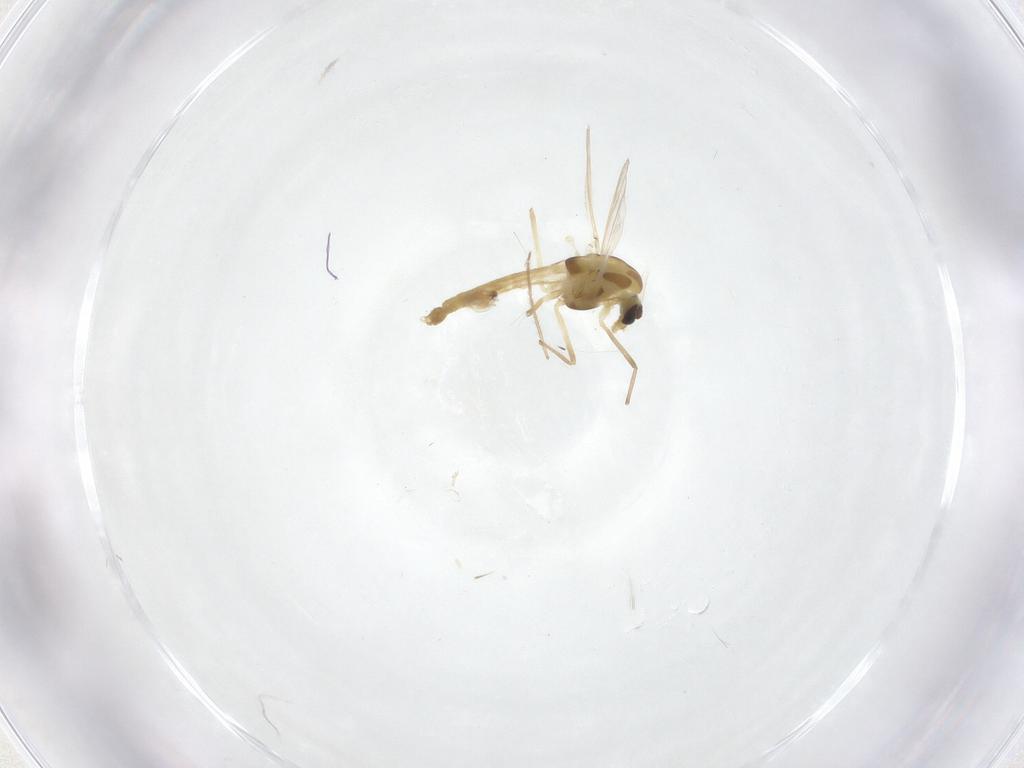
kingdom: Animalia
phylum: Arthropoda
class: Insecta
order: Diptera
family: Chironomidae
